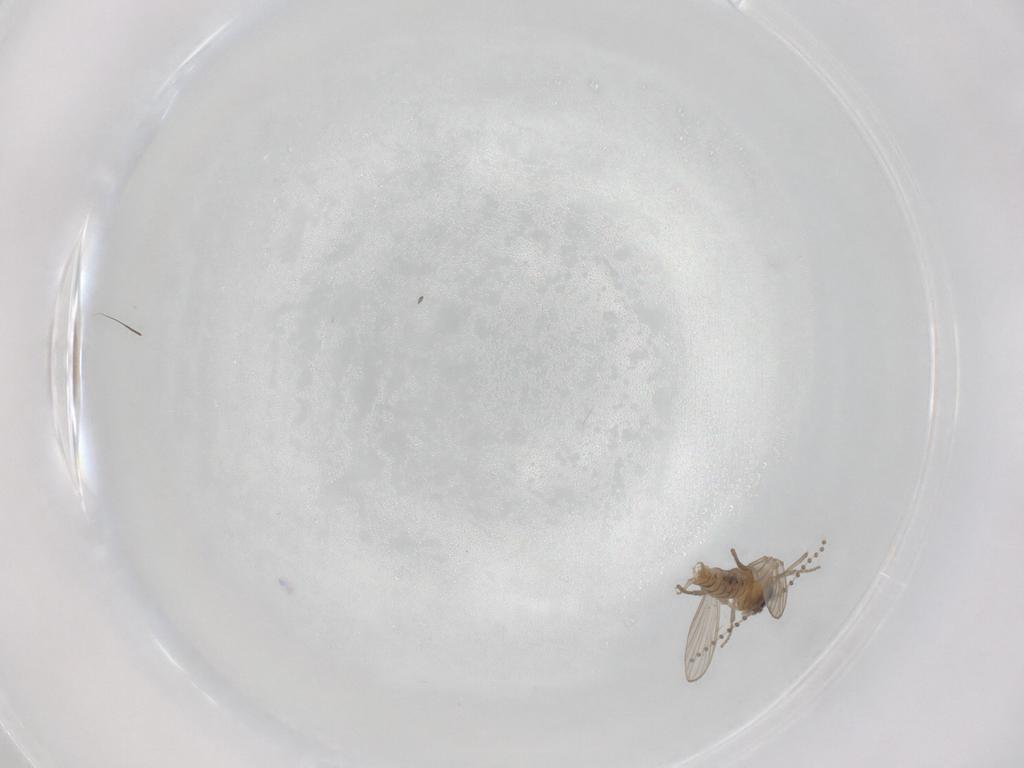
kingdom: Animalia
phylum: Arthropoda
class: Insecta
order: Diptera
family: Psychodidae
